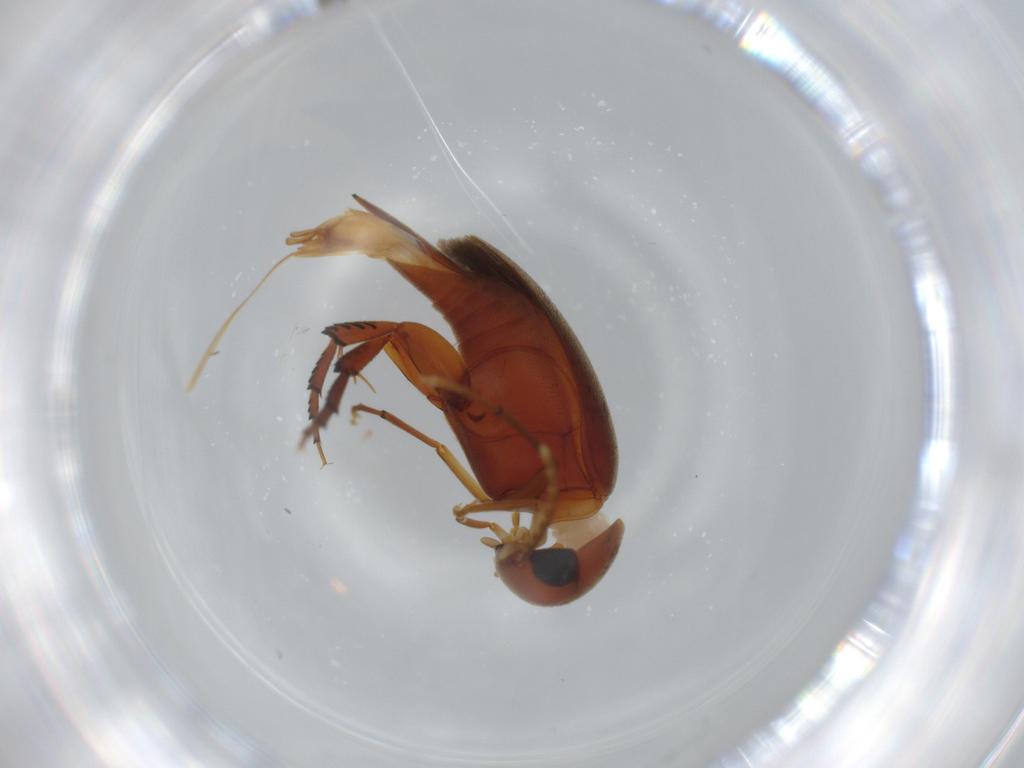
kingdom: Animalia
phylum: Arthropoda
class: Insecta
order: Coleoptera
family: Mordellidae
